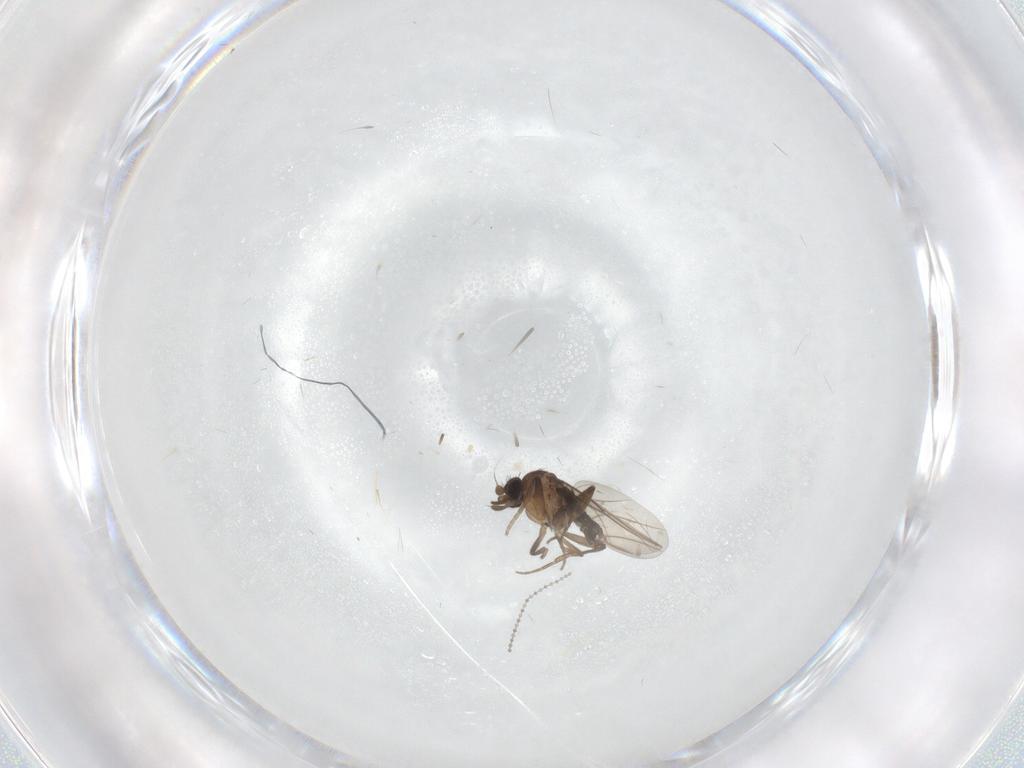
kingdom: Animalia
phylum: Arthropoda
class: Insecta
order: Diptera
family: Cecidomyiidae
